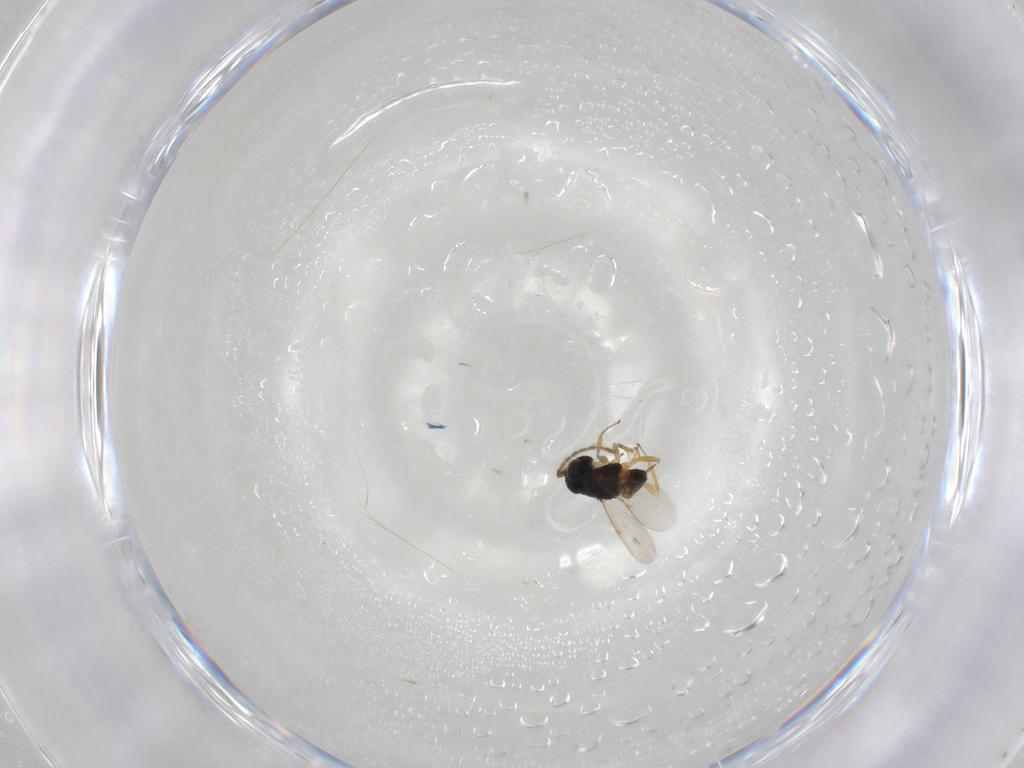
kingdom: Animalia
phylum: Arthropoda
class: Insecta
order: Hymenoptera
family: Encyrtidae
